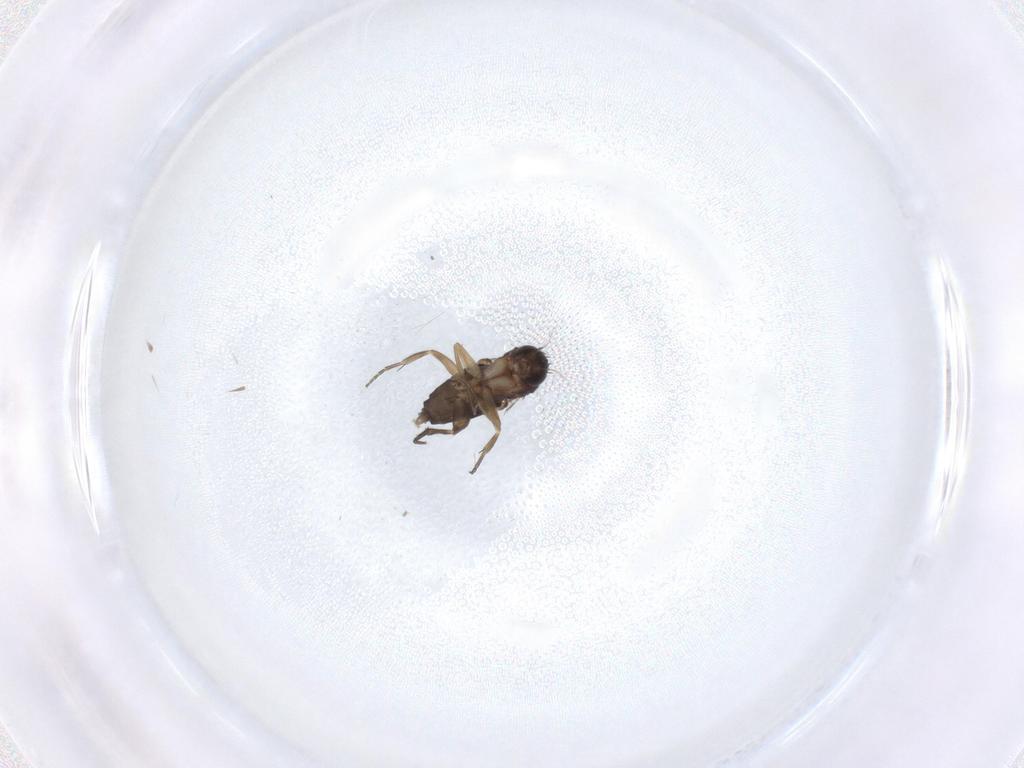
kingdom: Animalia
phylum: Arthropoda
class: Insecta
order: Diptera
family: Phoridae
